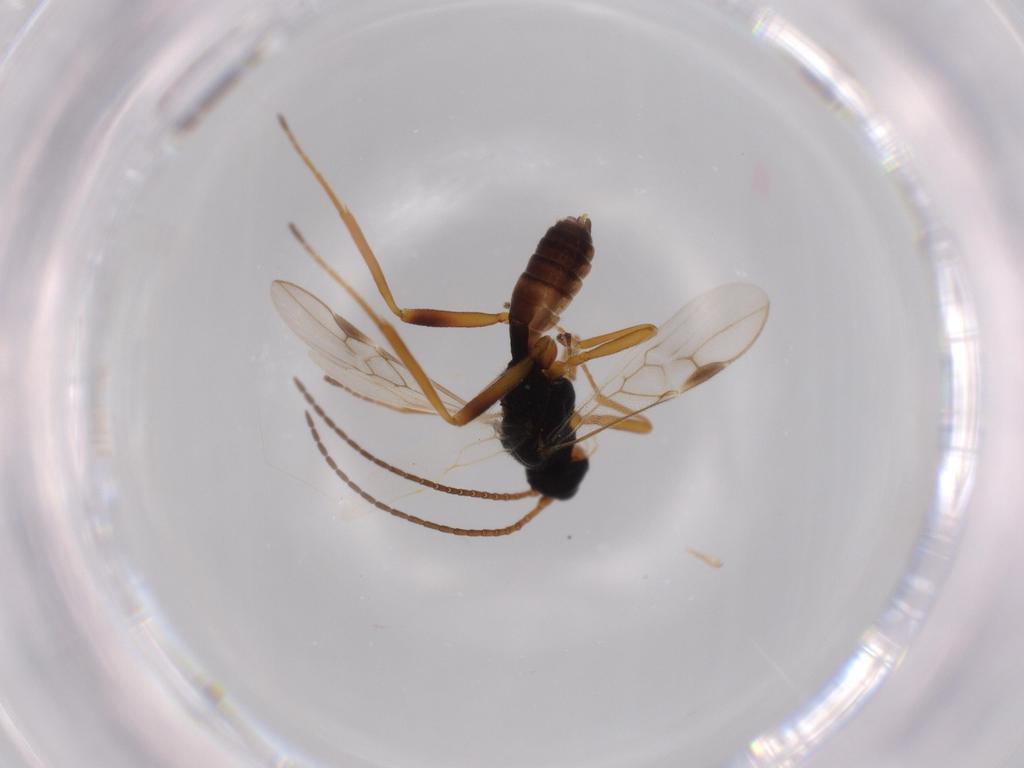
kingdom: Animalia
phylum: Arthropoda
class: Insecta
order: Hymenoptera
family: Braconidae
